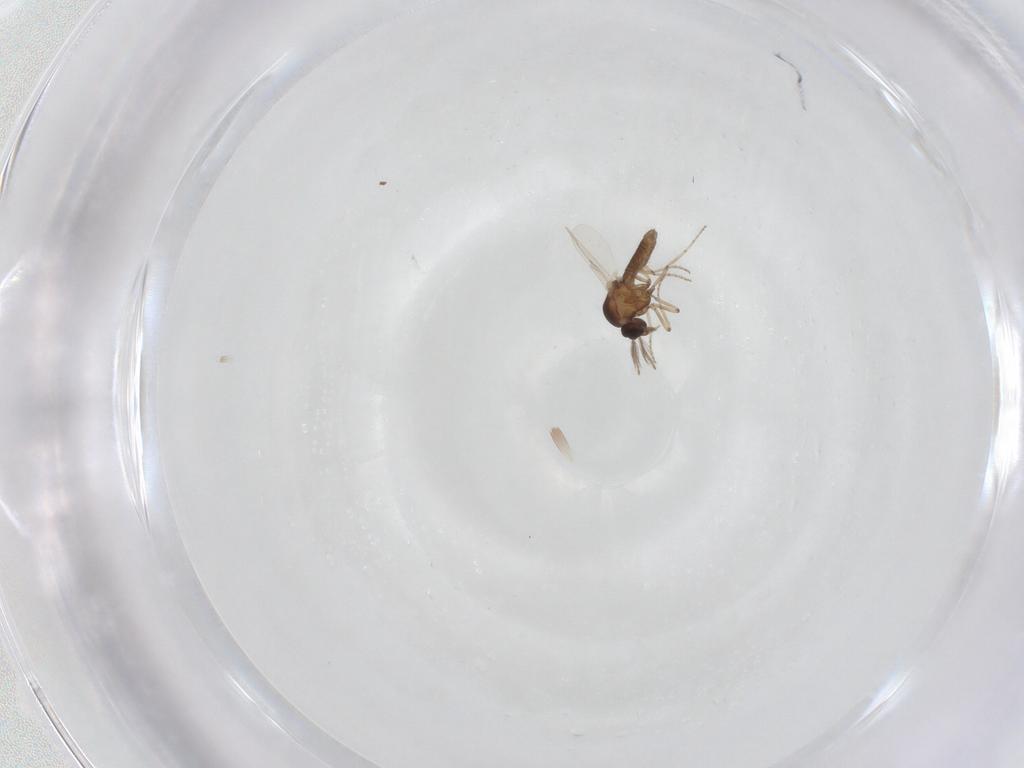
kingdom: Animalia
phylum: Arthropoda
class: Insecta
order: Diptera
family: Ceratopogonidae
